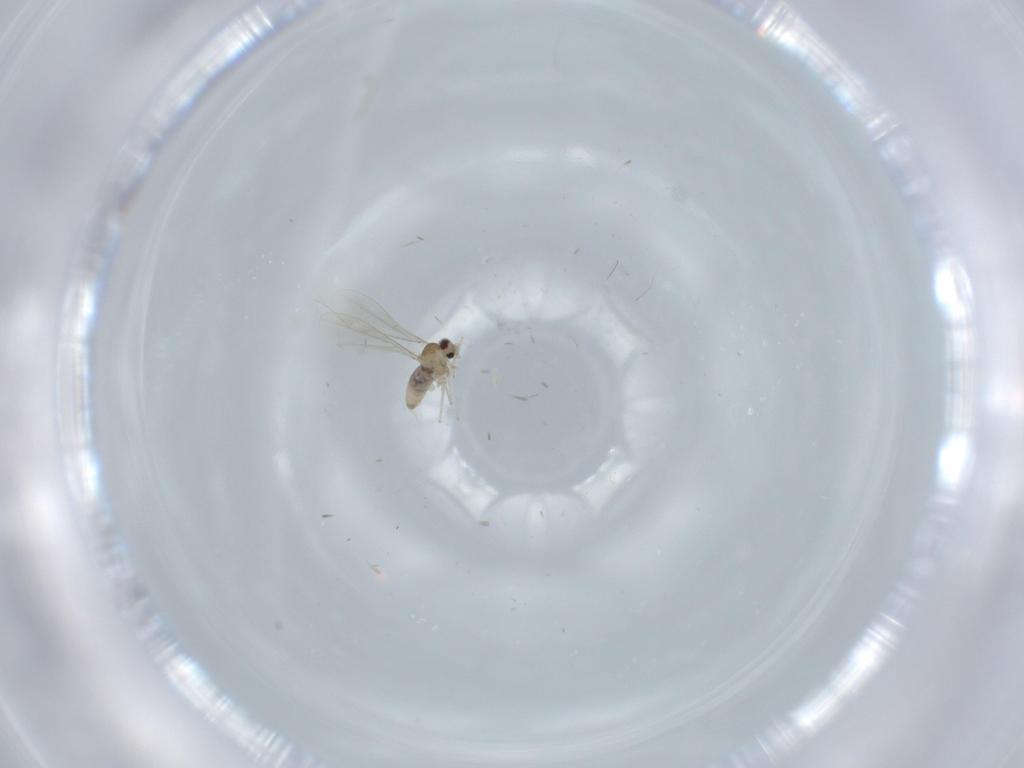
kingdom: Animalia
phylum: Arthropoda
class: Insecta
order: Diptera
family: Cecidomyiidae
